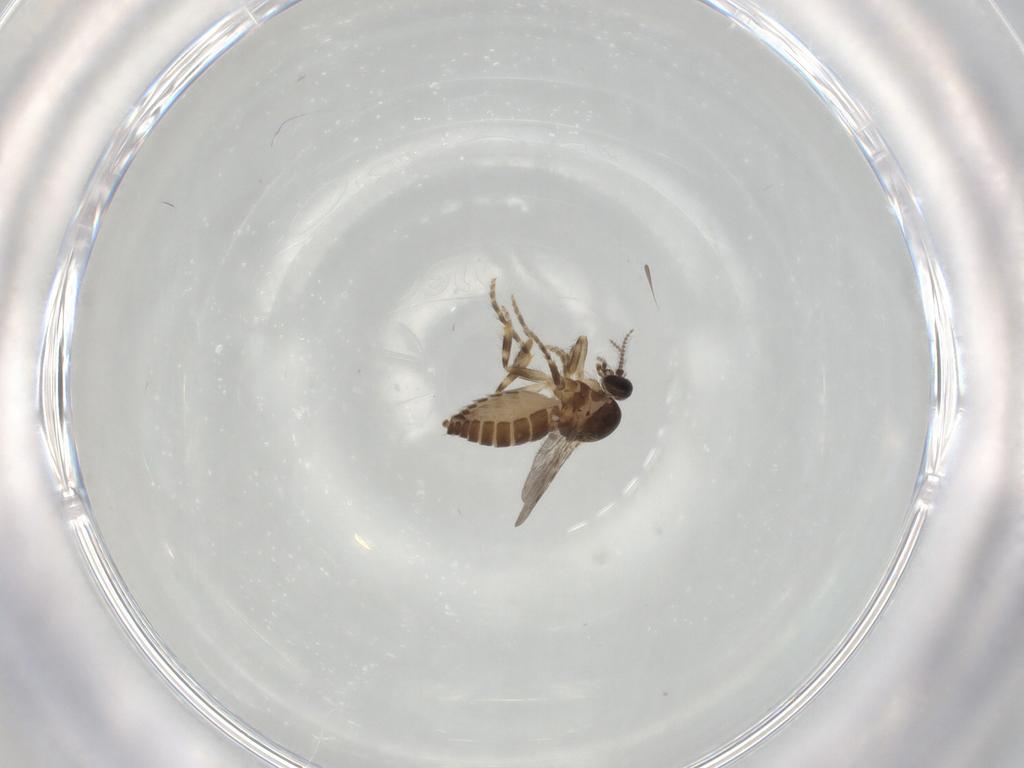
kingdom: Animalia
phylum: Arthropoda
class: Insecta
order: Diptera
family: Ceratopogonidae
